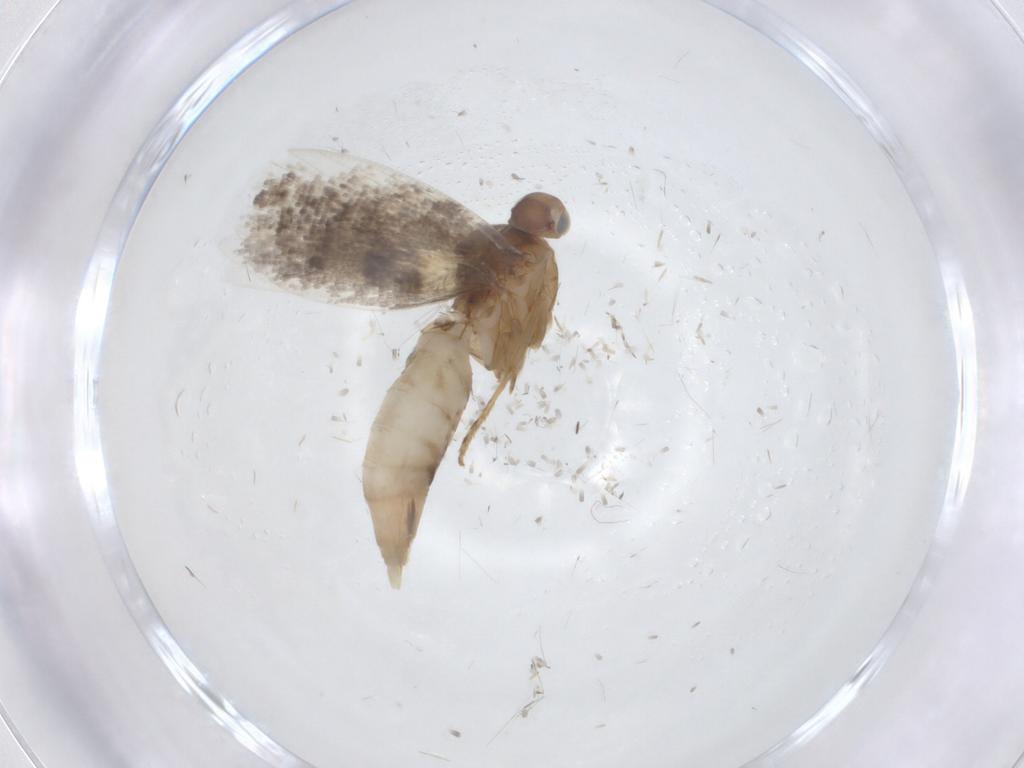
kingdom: Animalia
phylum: Arthropoda
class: Insecta
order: Lepidoptera
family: Glyphipterigidae
